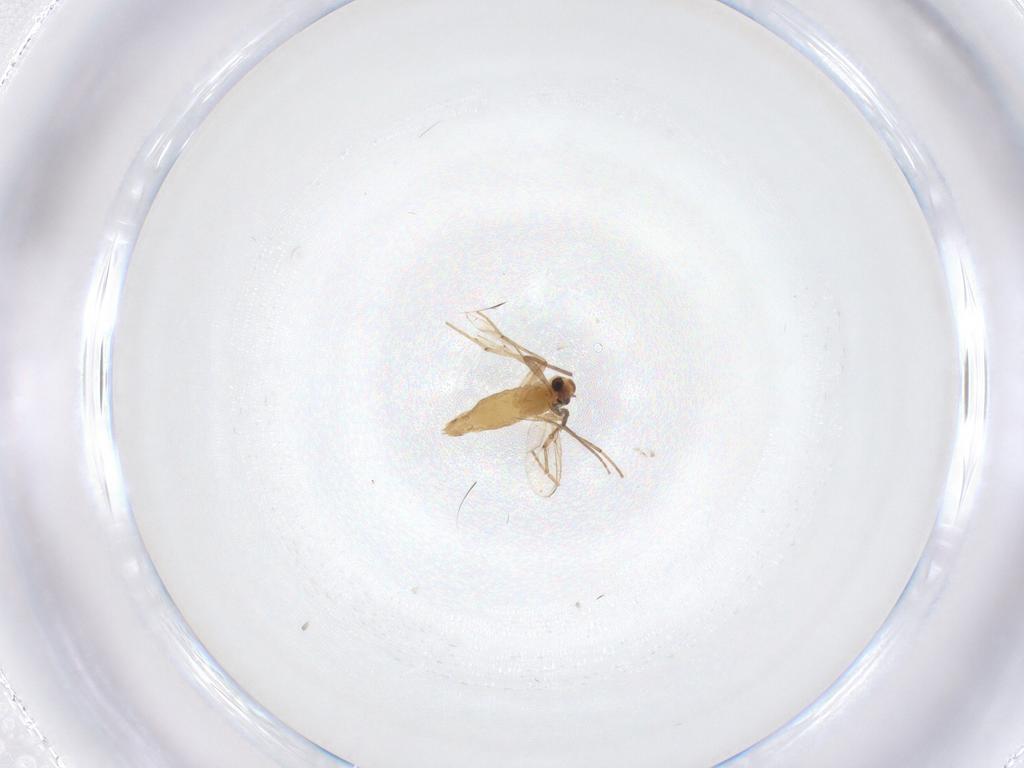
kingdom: Animalia
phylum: Arthropoda
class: Insecta
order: Diptera
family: Chironomidae
